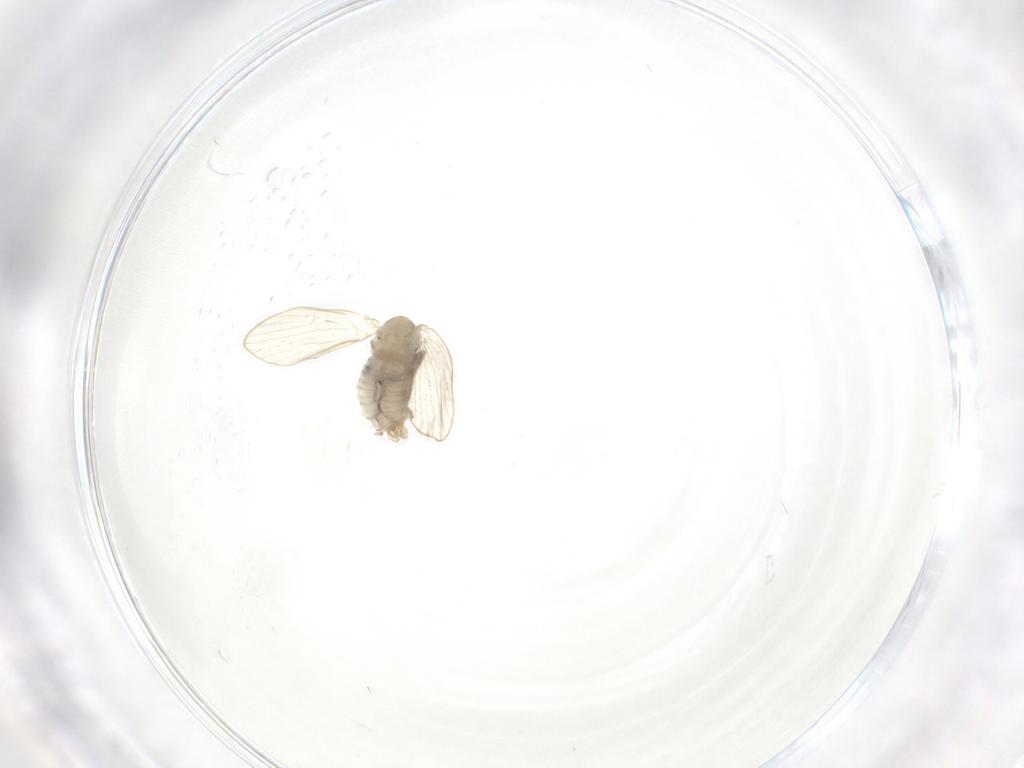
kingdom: Animalia
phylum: Arthropoda
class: Insecta
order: Diptera
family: Psychodidae
